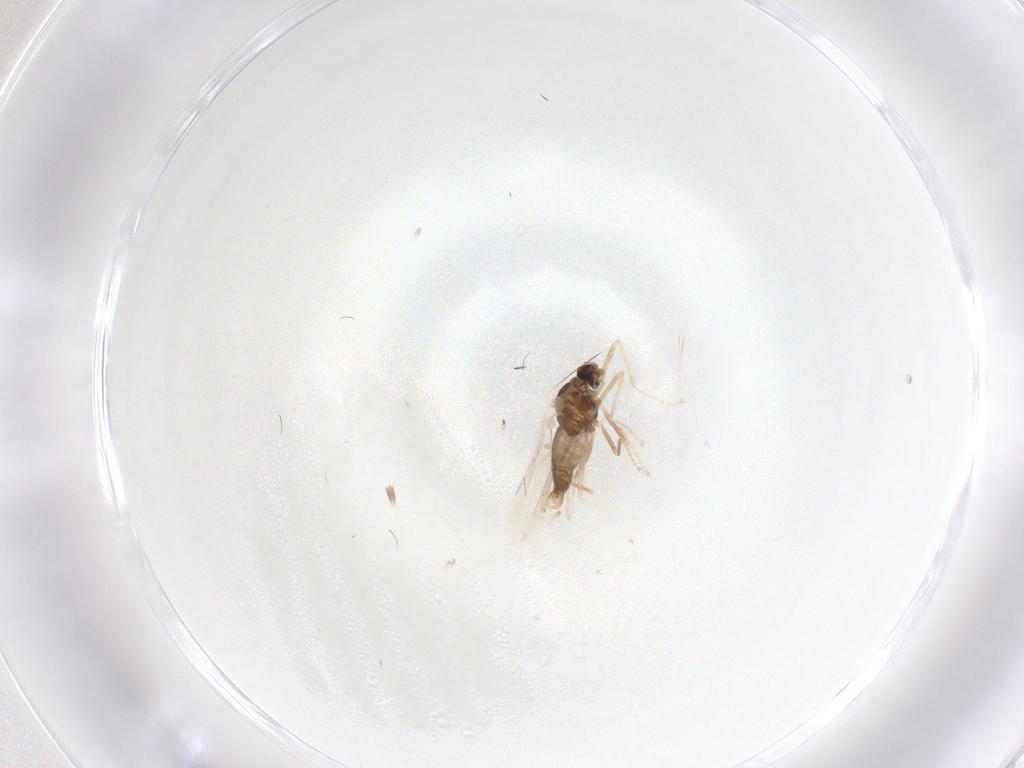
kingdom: Animalia
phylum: Arthropoda
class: Insecta
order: Diptera
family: Cecidomyiidae
